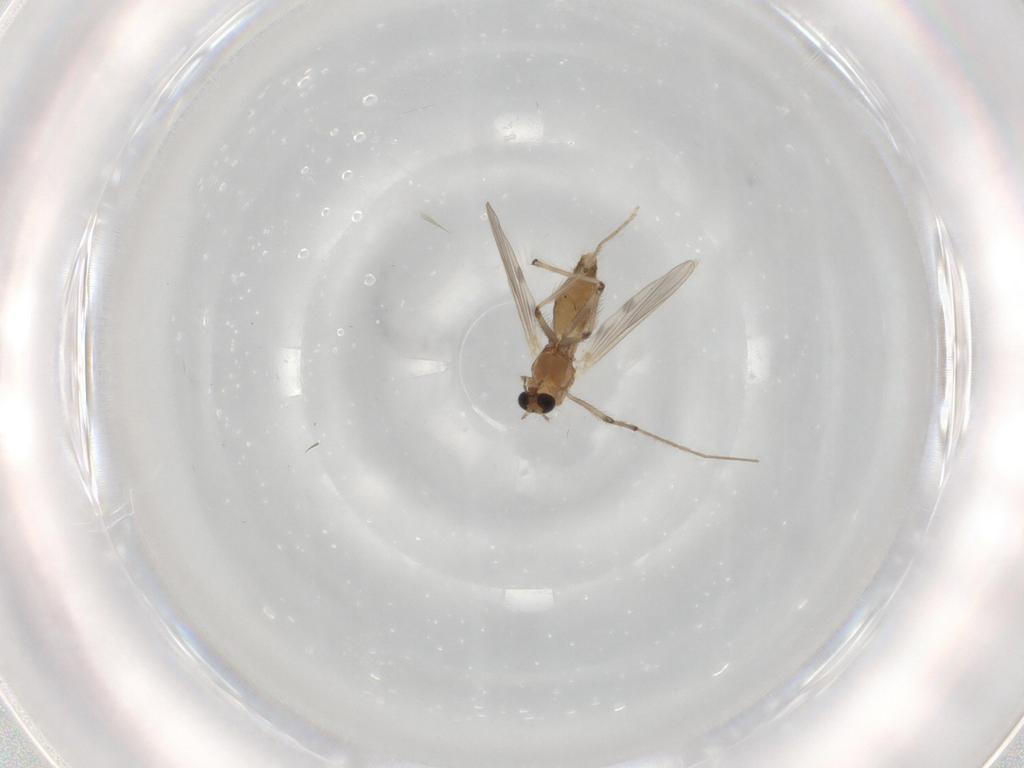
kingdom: Animalia
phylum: Arthropoda
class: Insecta
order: Diptera
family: Chironomidae
